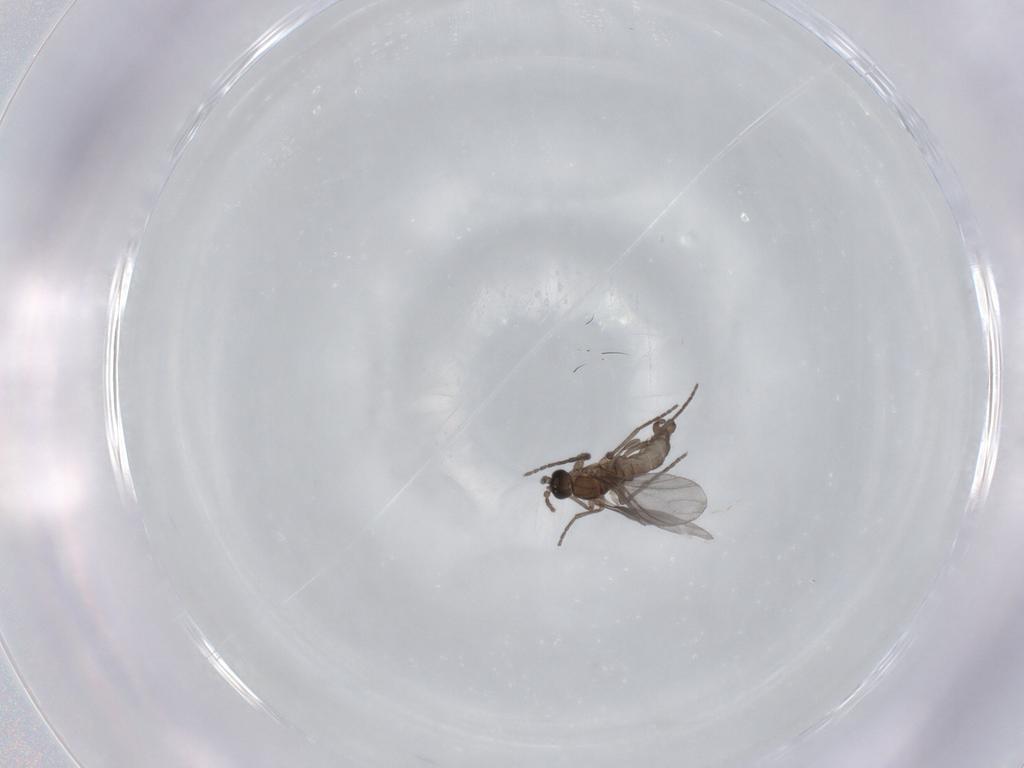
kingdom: Animalia
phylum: Arthropoda
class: Insecta
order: Diptera
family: Sciaridae
